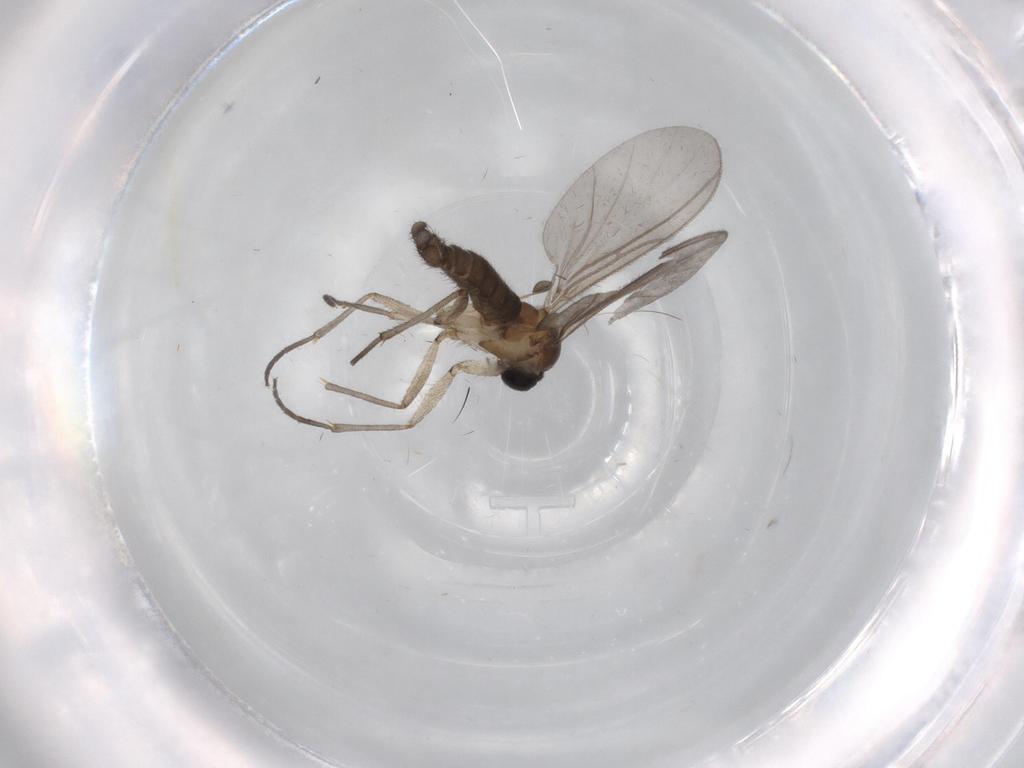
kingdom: Animalia
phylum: Arthropoda
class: Insecta
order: Diptera
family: Cecidomyiidae
